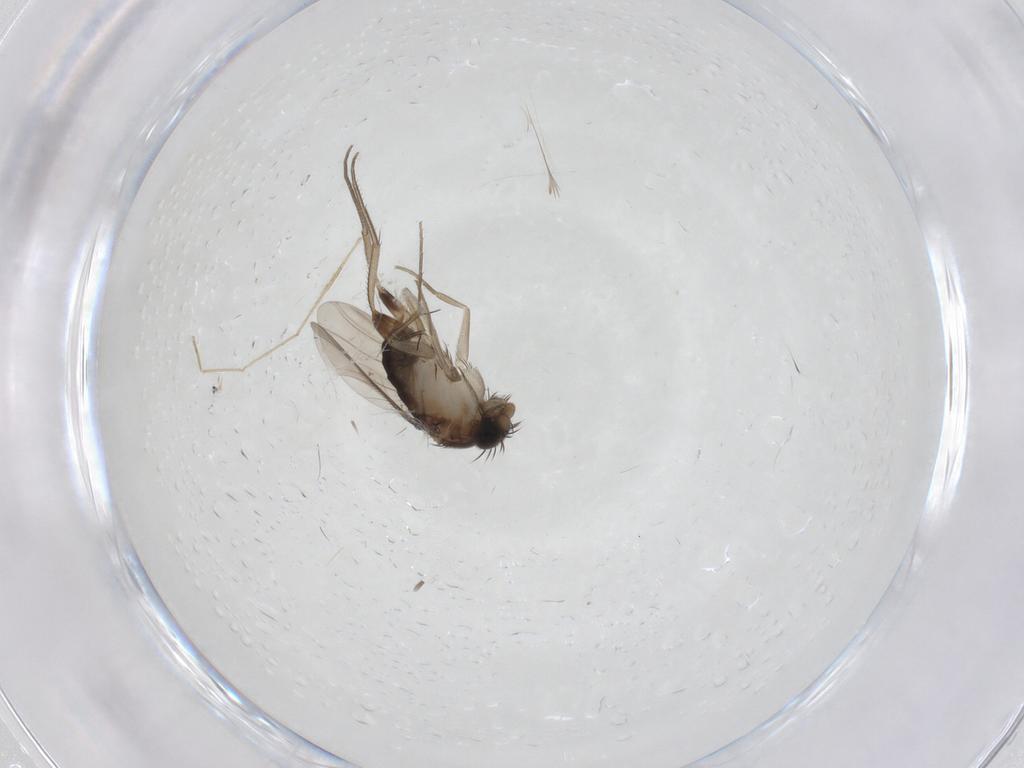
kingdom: Animalia
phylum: Arthropoda
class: Insecta
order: Diptera
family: Phoridae
